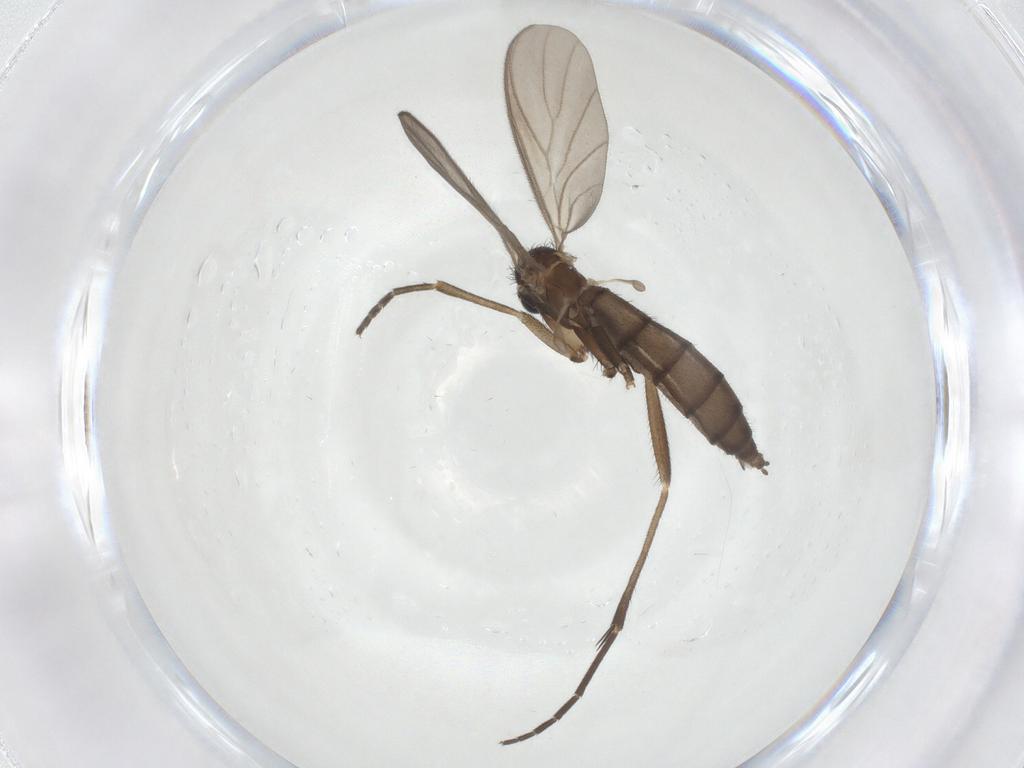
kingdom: Animalia
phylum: Arthropoda
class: Insecta
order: Diptera
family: Keroplatidae
